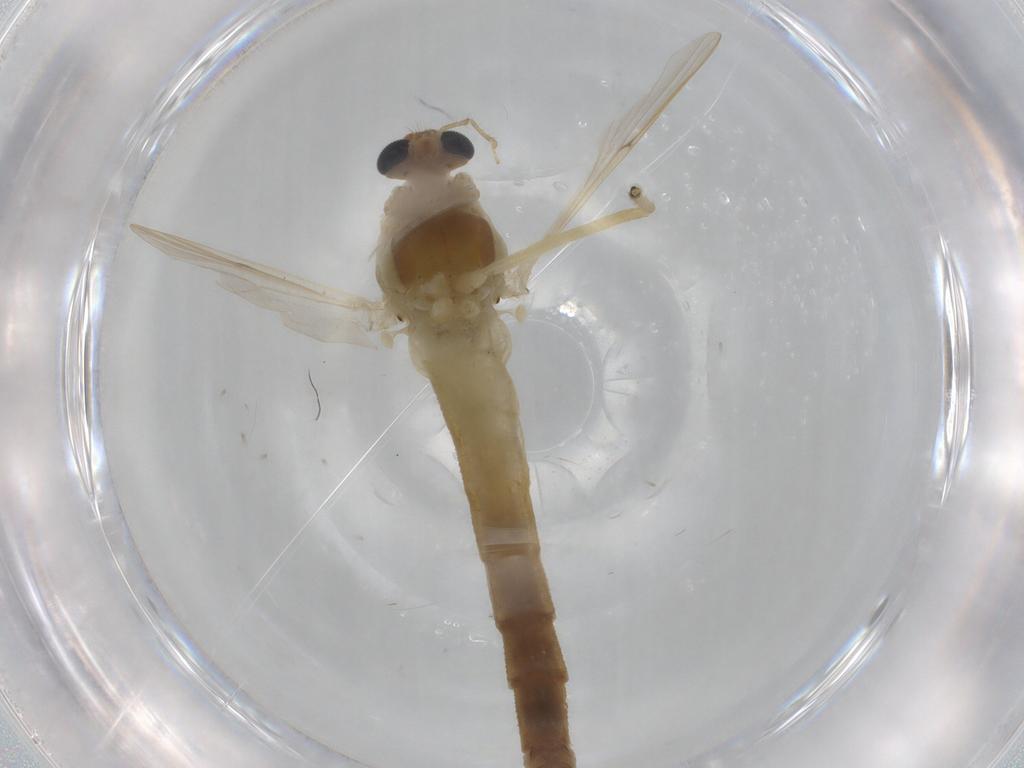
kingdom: Animalia
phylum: Arthropoda
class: Insecta
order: Diptera
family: Chironomidae
